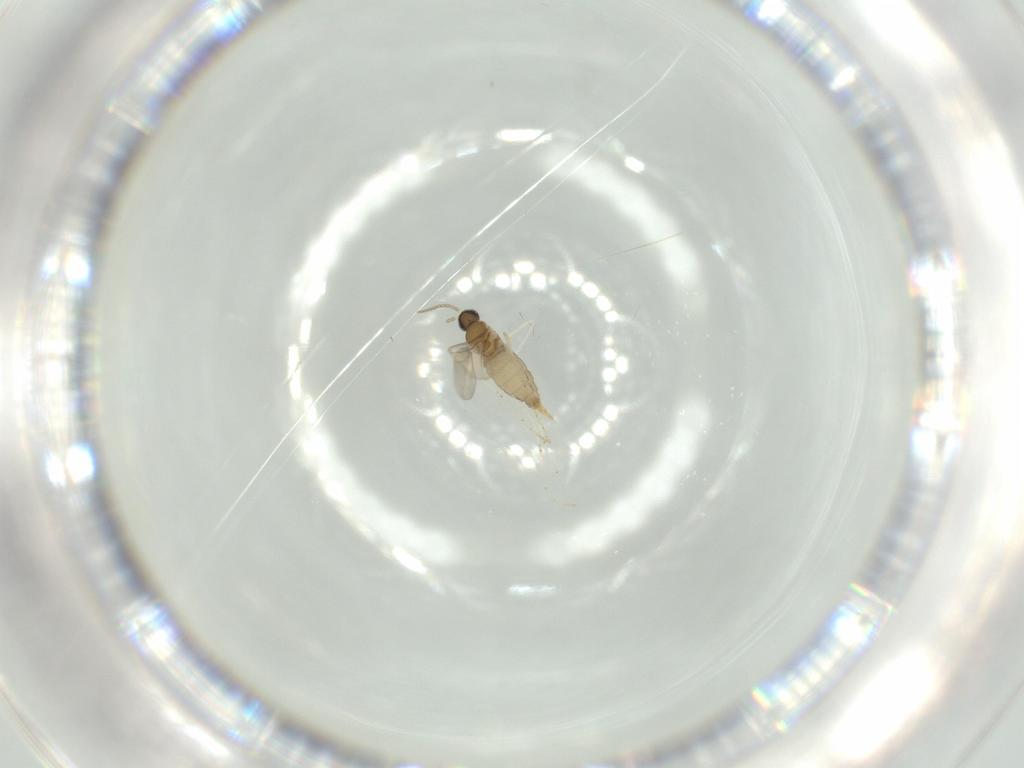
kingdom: Animalia
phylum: Arthropoda
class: Insecta
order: Diptera
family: Cecidomyiidae
